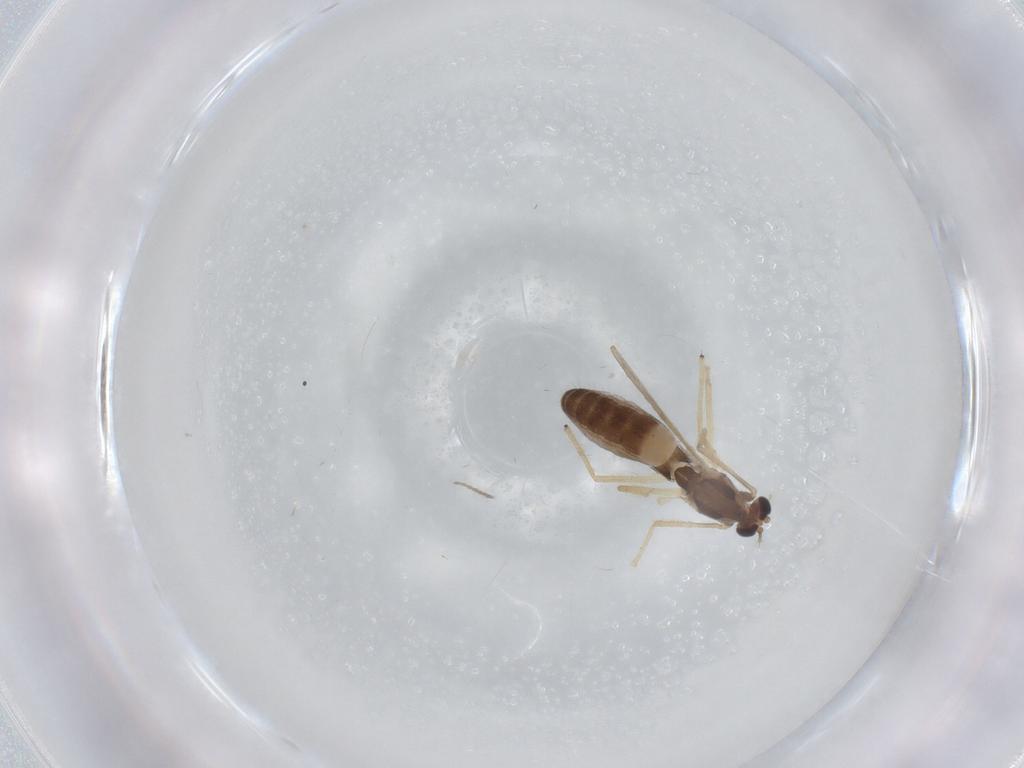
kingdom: Animalia
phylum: Arthropoda
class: Insecta
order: Diptera
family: Chironomidae
